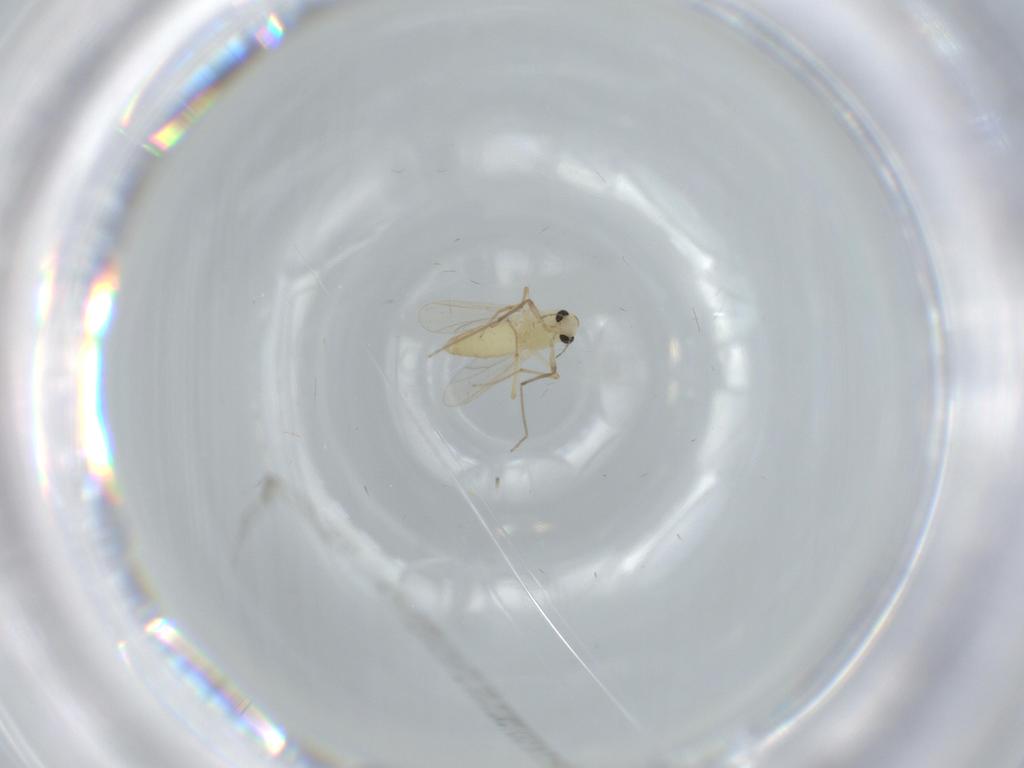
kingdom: Animalia
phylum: Arthropoda
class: Insecta
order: Diptera
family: Chironomidae
